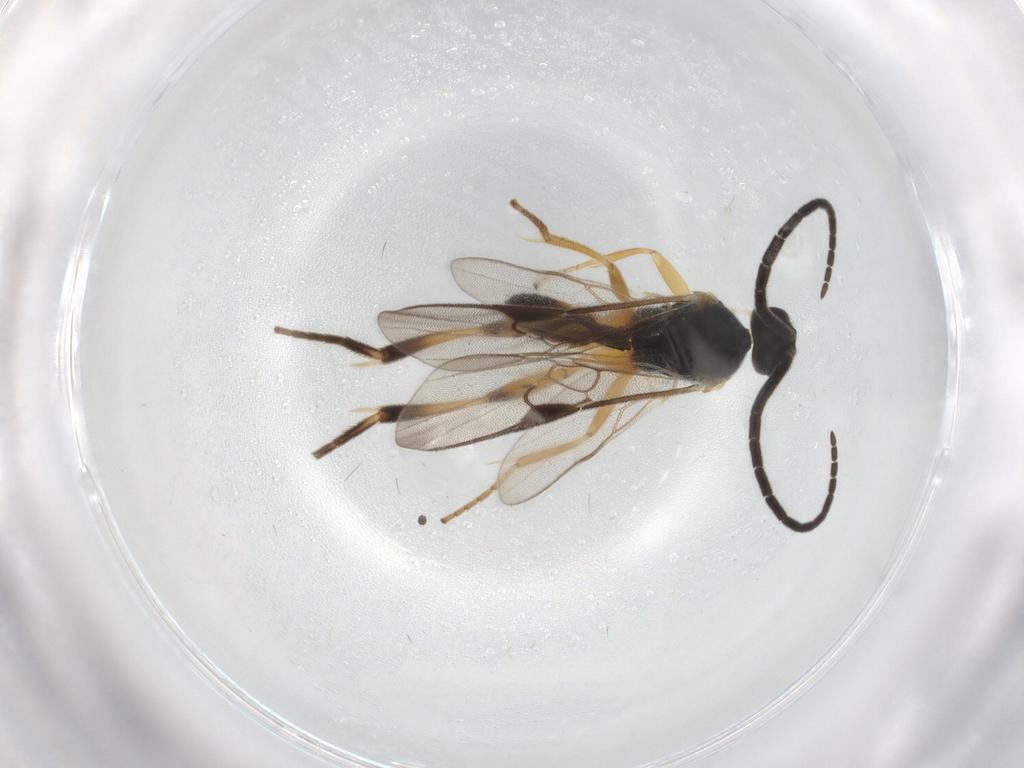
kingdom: Animalia
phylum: Arthropoda
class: Insecta
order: Hymenoptera
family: Braconidae
